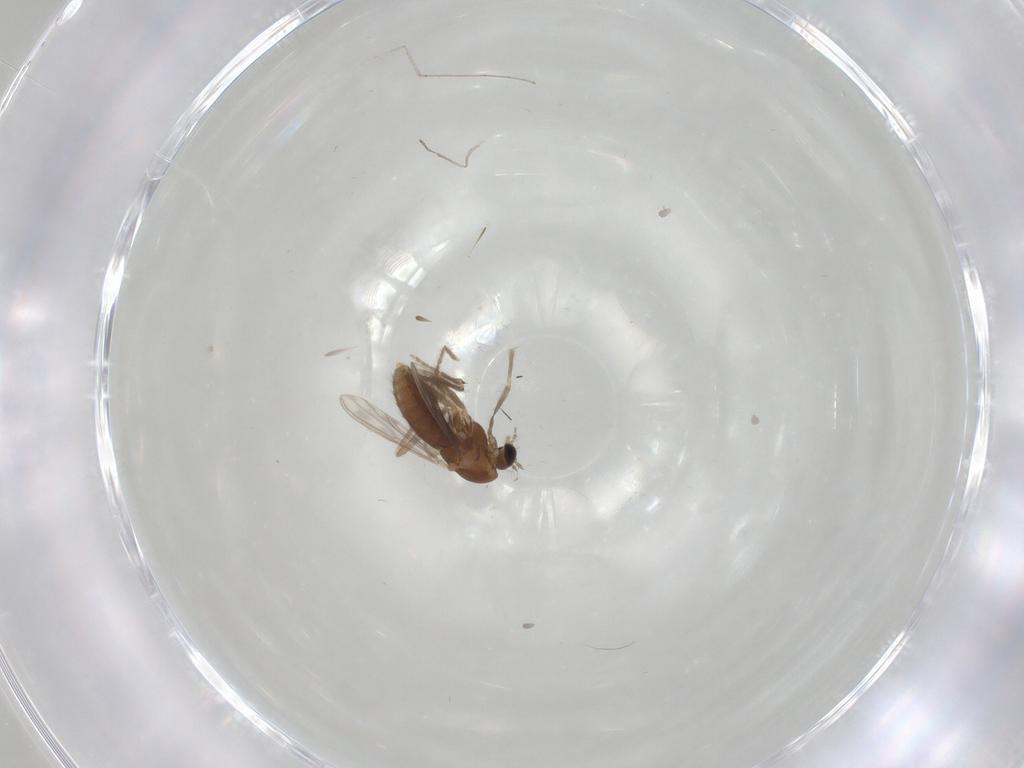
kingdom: Animalia
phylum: Arthropoda
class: Insecta
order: Diptera
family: Chironomidae
